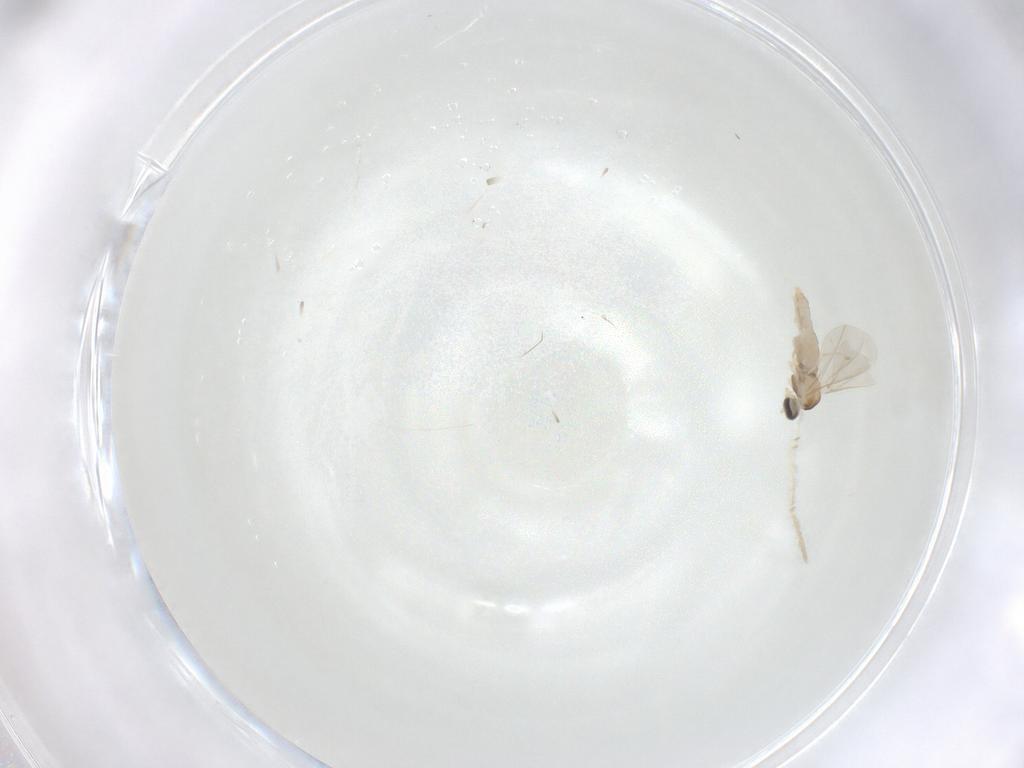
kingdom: Animalia
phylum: Arthropoda
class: Insecta
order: Diptera
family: Cecidomyiidae
